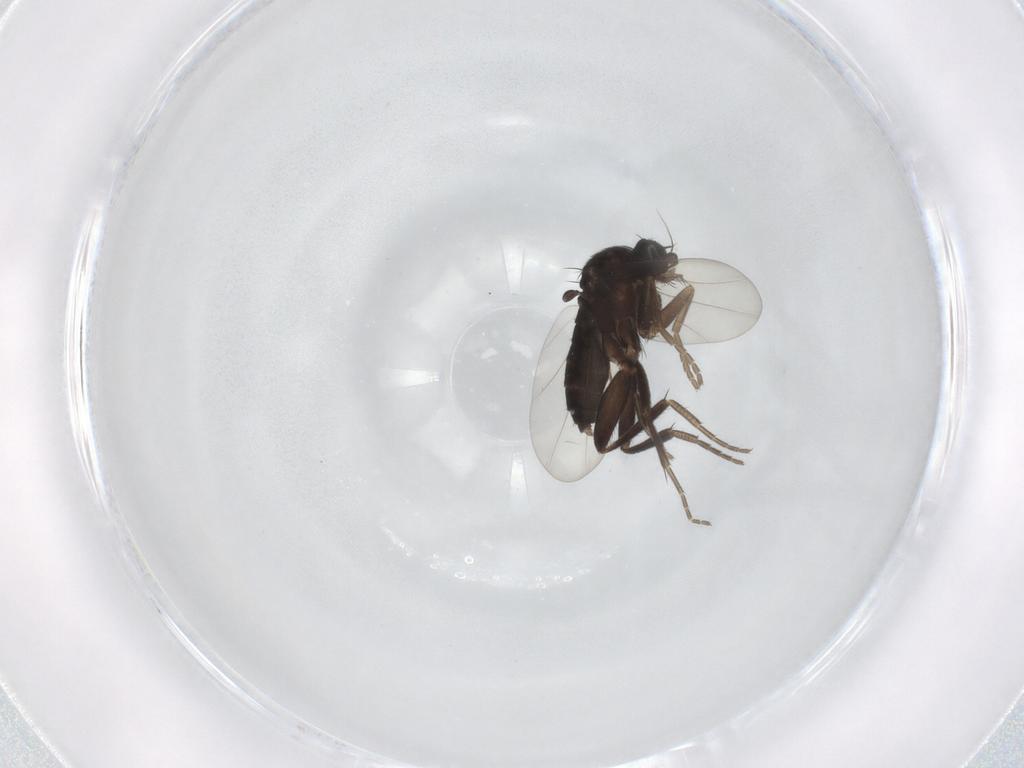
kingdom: Animalia
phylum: Arthropoda
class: Insecta
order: Diptera
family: Phoridae
